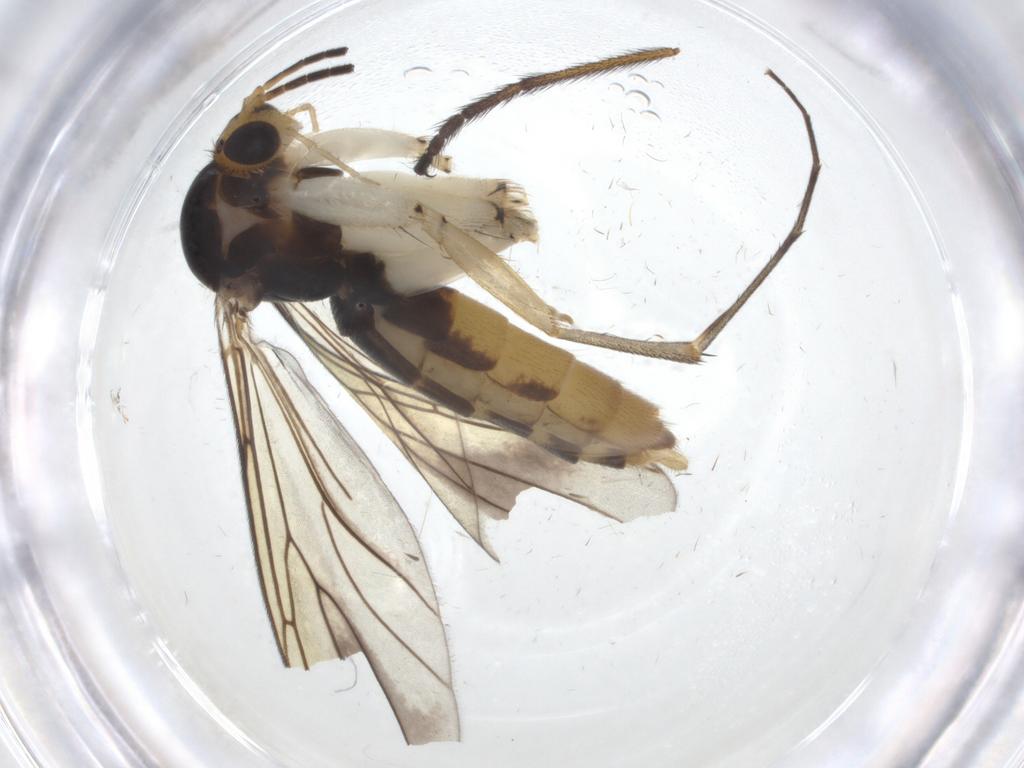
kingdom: Animalia
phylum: Arthropoda
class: Insecta
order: Diptera
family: Mycetophilidae
